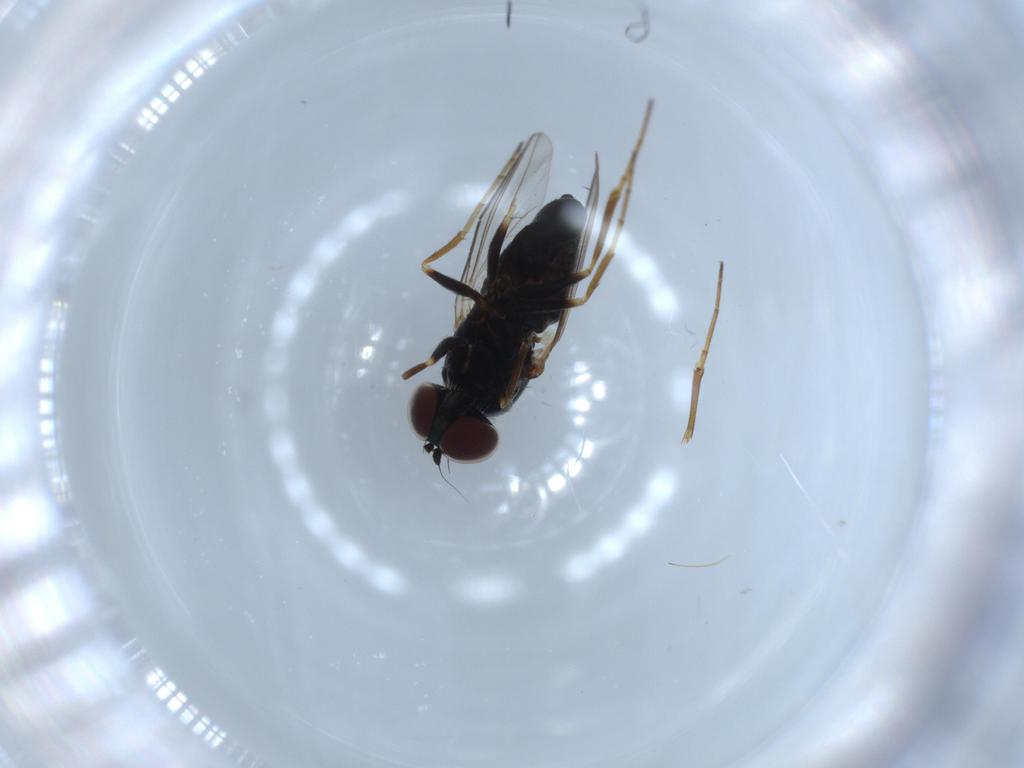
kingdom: Animalia
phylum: Arthropoda
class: Insecta
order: Diptera
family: Dolichopodidae
